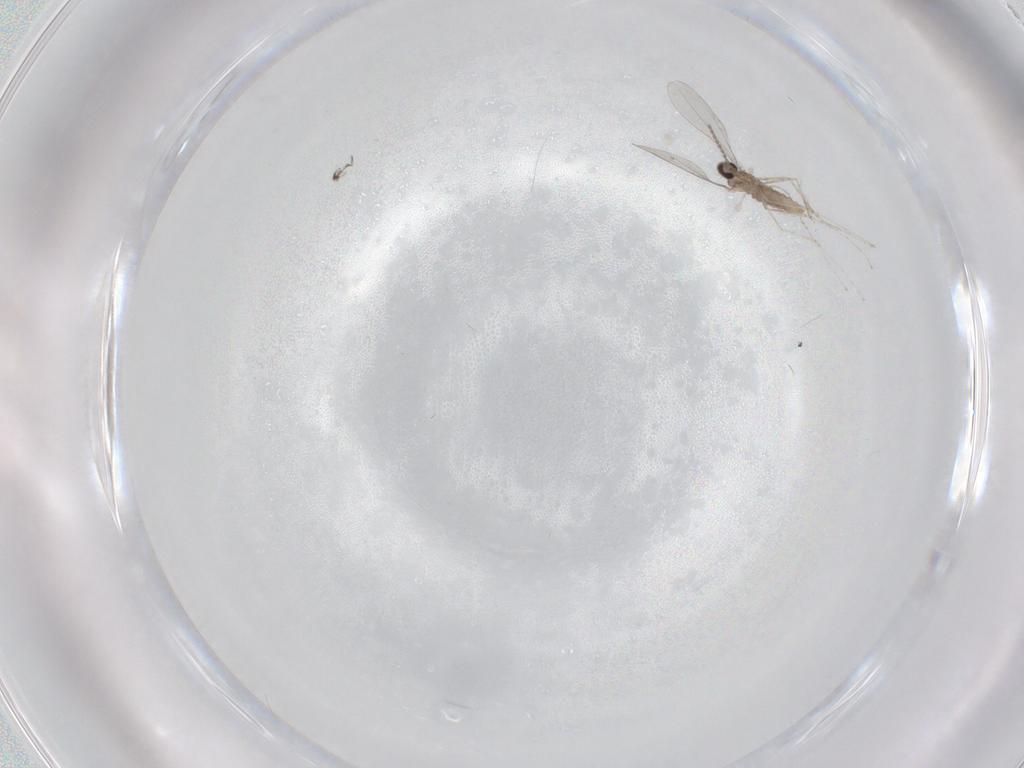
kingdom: Animalia
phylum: Arthropoda
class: Insecta
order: Diptera
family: Cecidomyiidae
